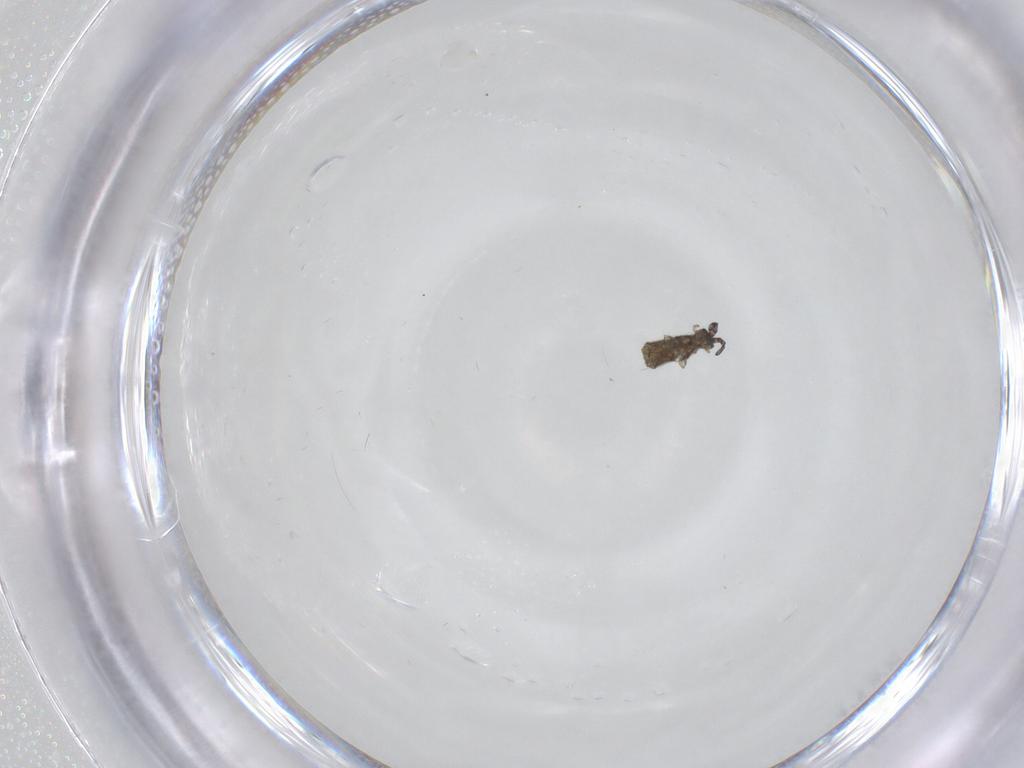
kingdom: Animalia
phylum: Arthropoda
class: Collembola
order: Entomobryomorpha
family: Entomobryidae
